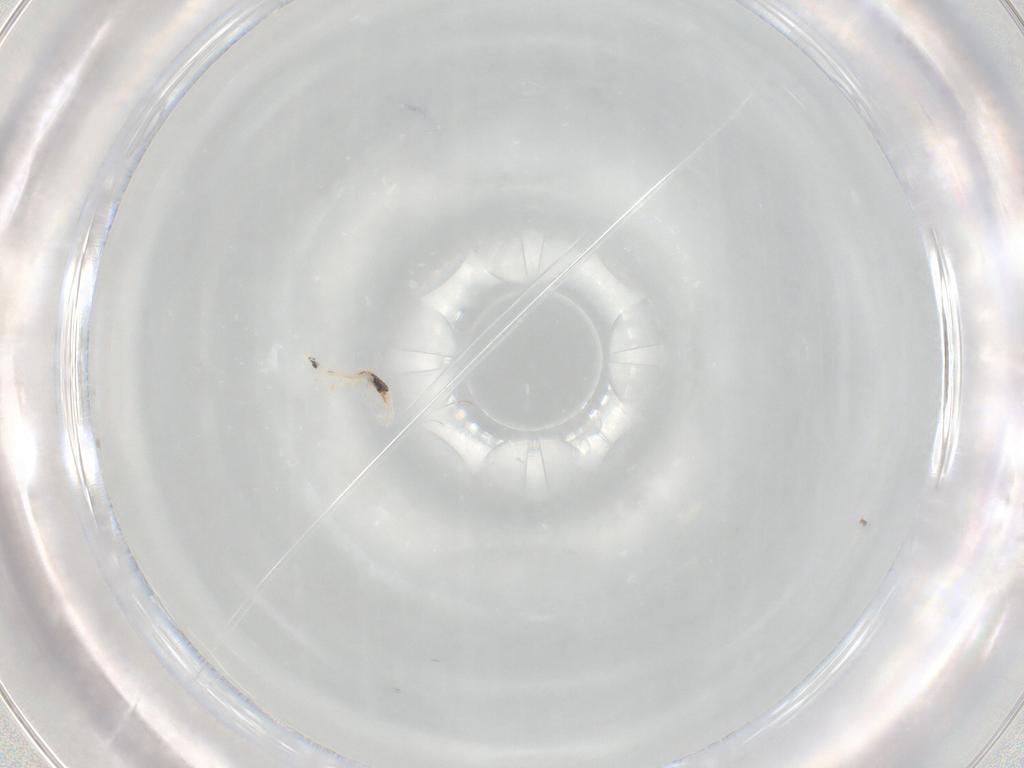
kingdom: Animalia
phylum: Arthropoda
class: Collembola
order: Entomobryomorpha
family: Entomobryidae
